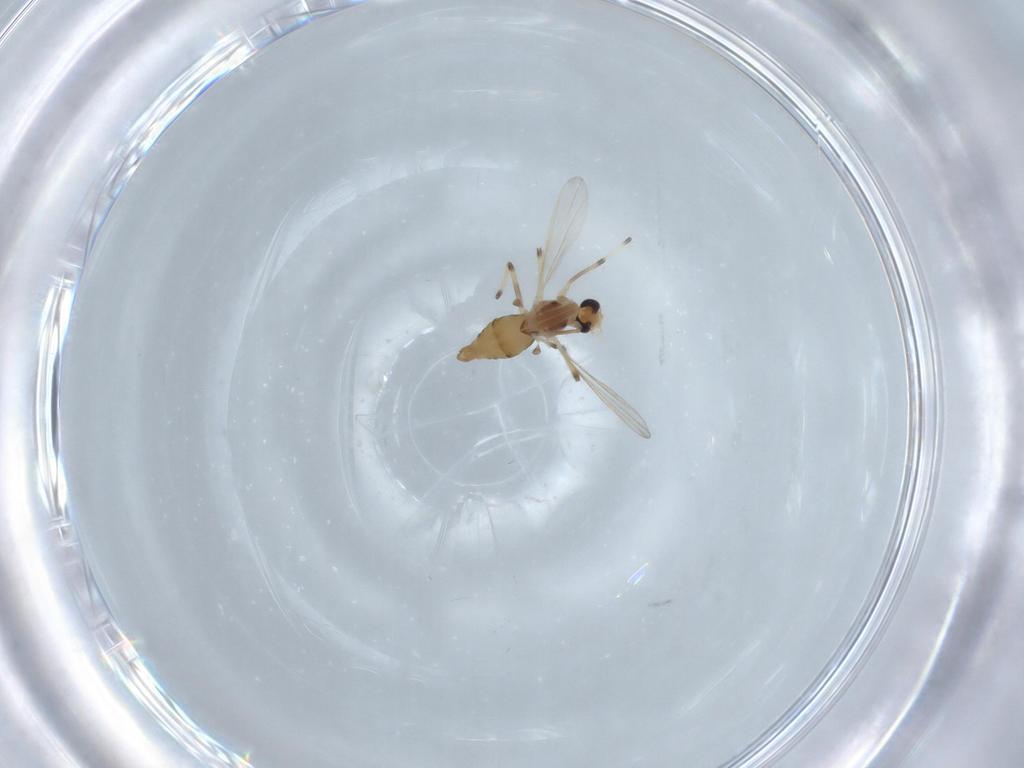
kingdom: Animalia
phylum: Arthropoda
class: Insecta
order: Diptera
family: Chironomidae
